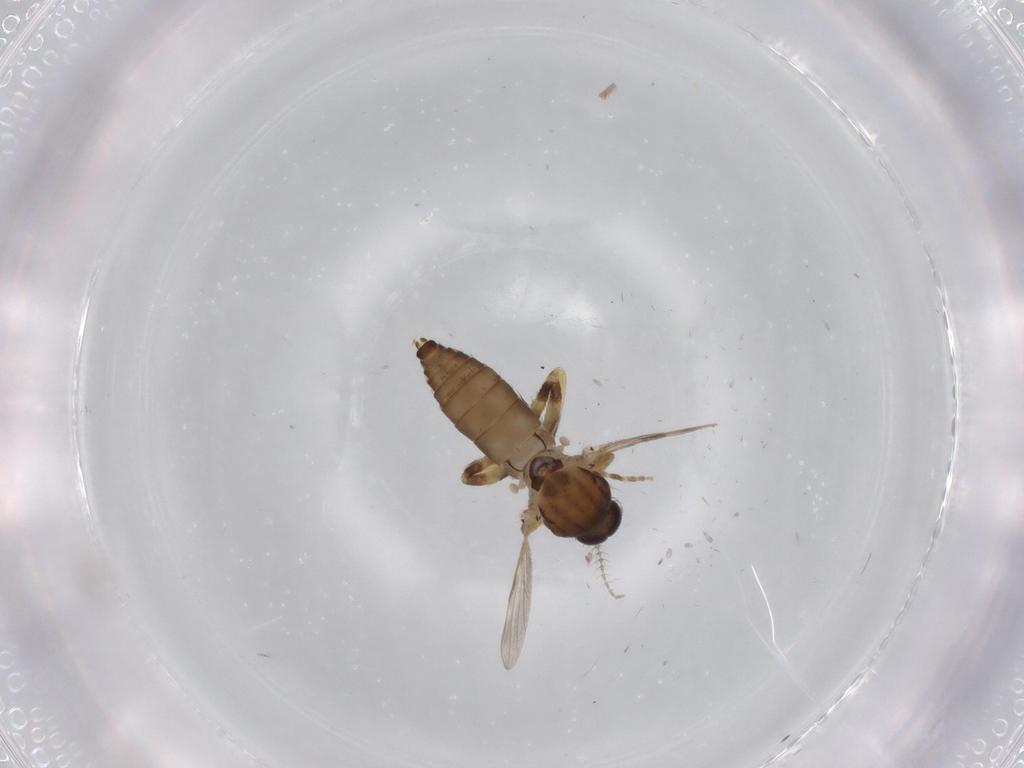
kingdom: Animalia
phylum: Arthropoda
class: Insecta
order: Diptera
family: Ceratopogonidae
